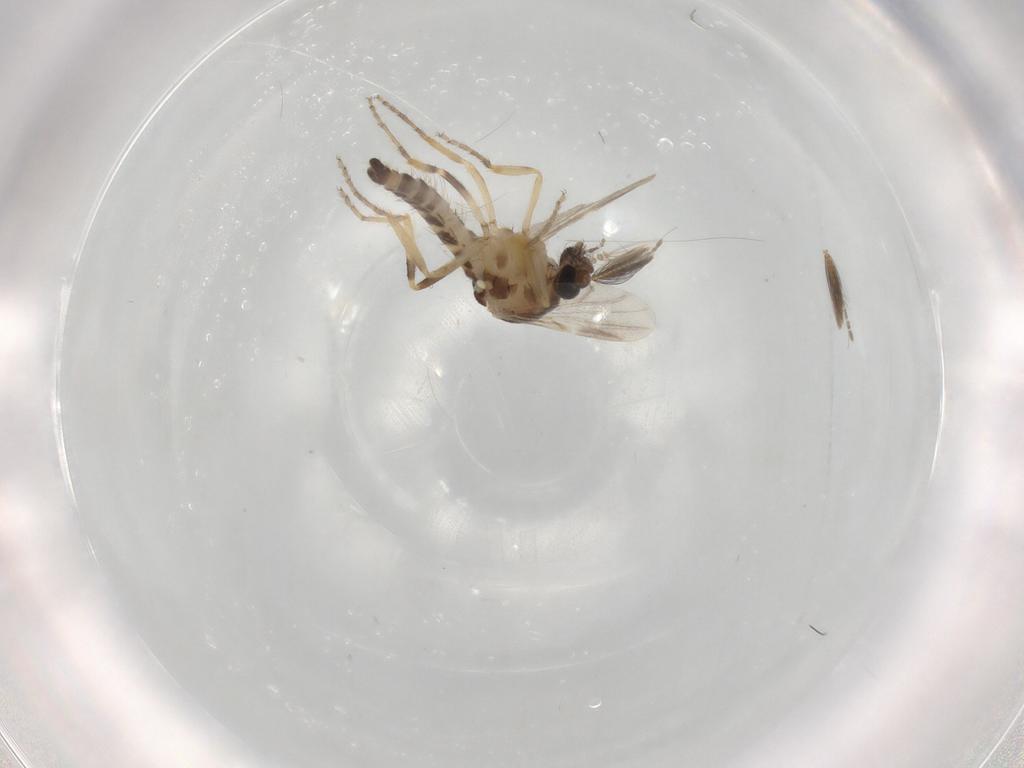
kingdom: Animalia
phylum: Arthropoda
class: Insecta
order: Diptera
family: Ceratopogonidae
